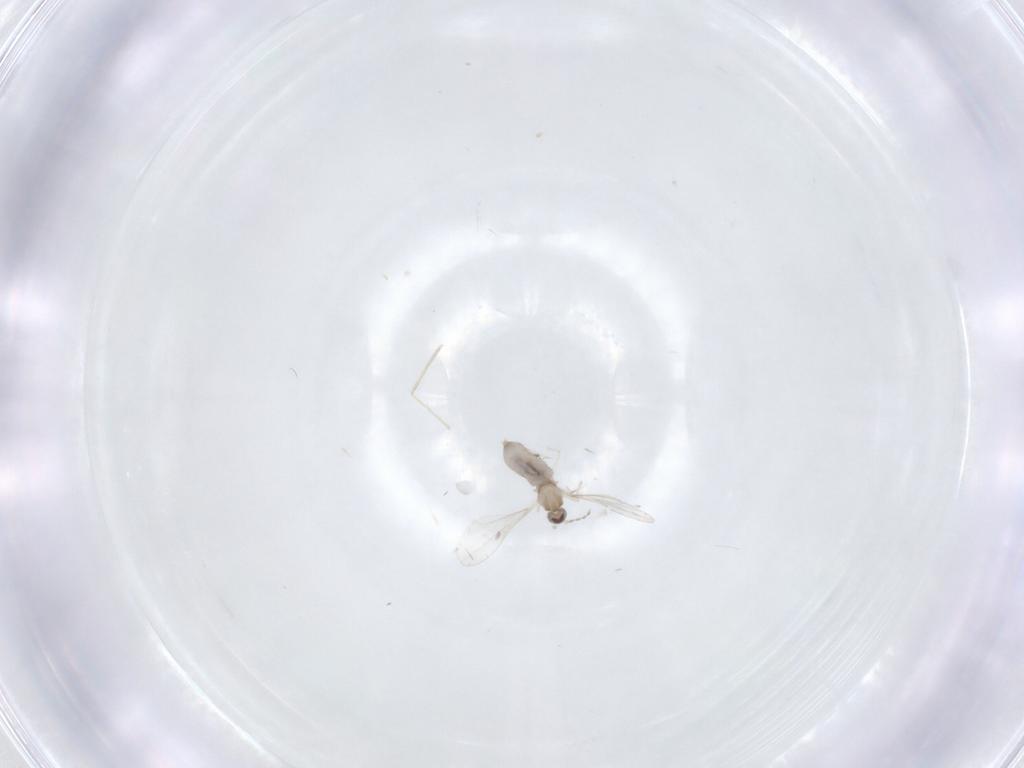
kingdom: Animalia
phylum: Arthropoda
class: Insecta
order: Diptera
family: Cecidomyiidae
